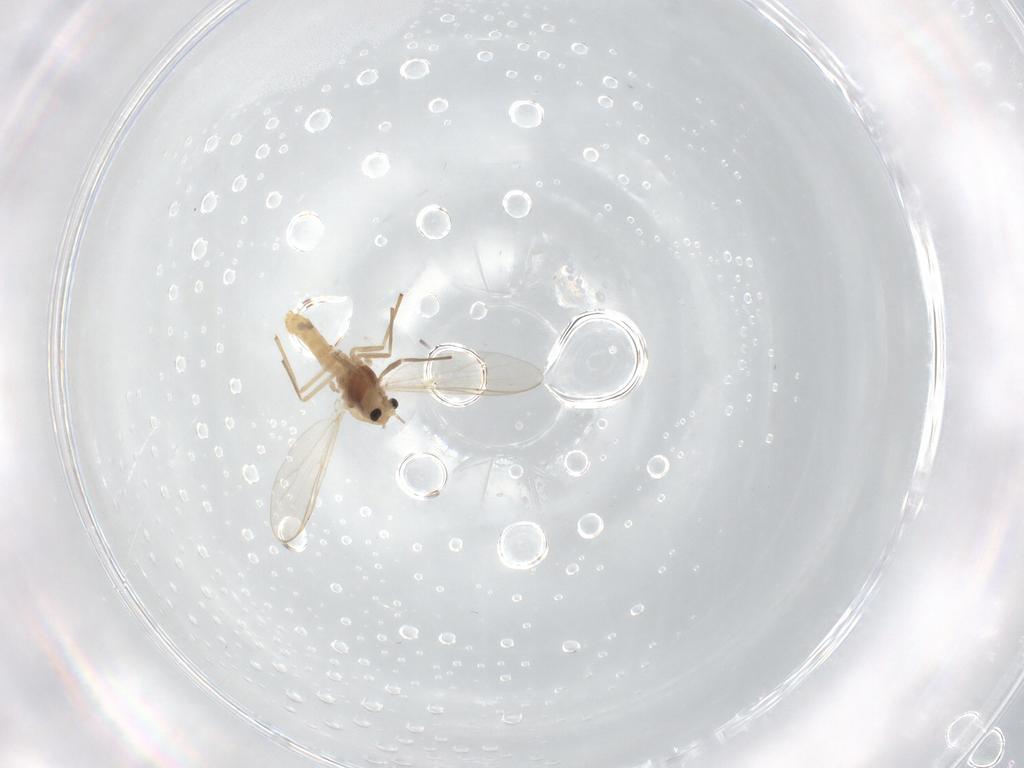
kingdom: Animalia
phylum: Arthropoda
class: Insecta
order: Diptera
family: Chironomidae
